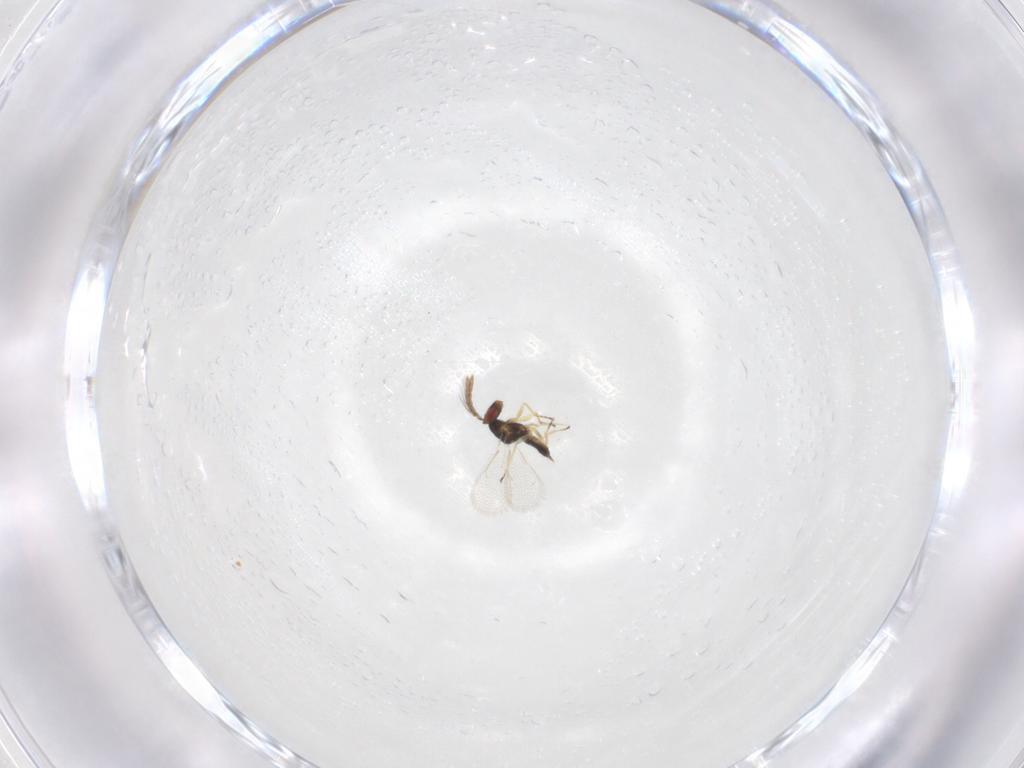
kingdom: Animalia
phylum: Arthropoda
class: Insecta
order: Hymenoptera
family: Eulophidae
